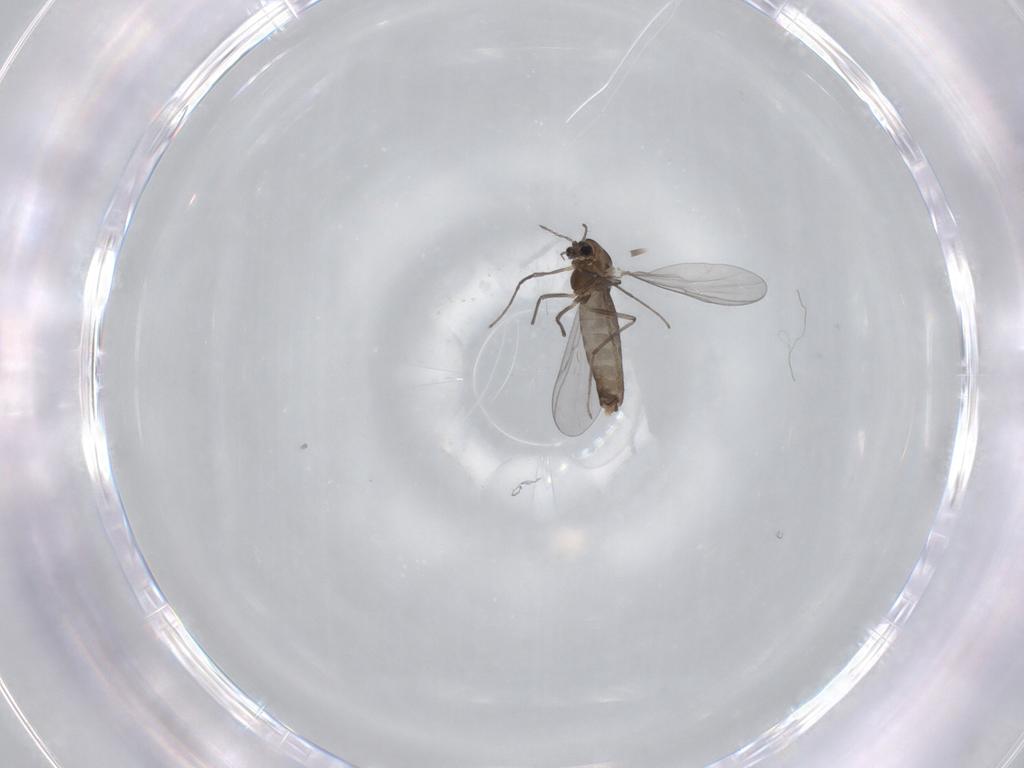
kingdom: Animalia
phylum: Arthropoda
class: Insecta
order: Diptera
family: Chironomidae
